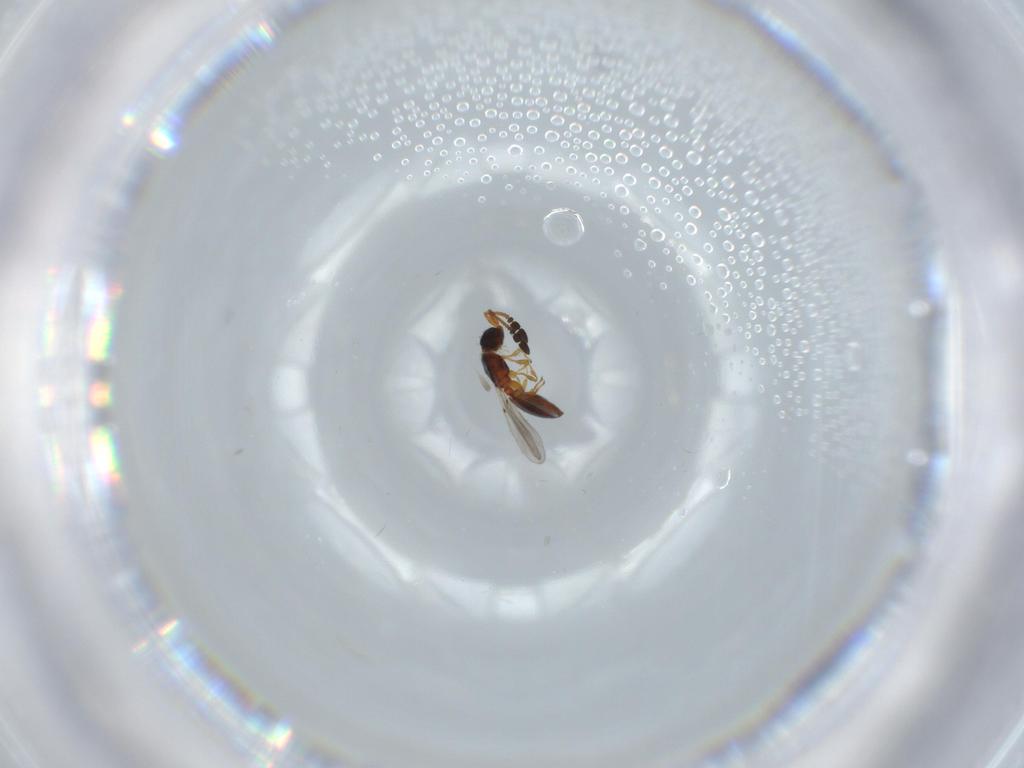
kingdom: Animalia
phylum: Arthropoda
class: Insecta
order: Hymenoptera
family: Diapriidae
